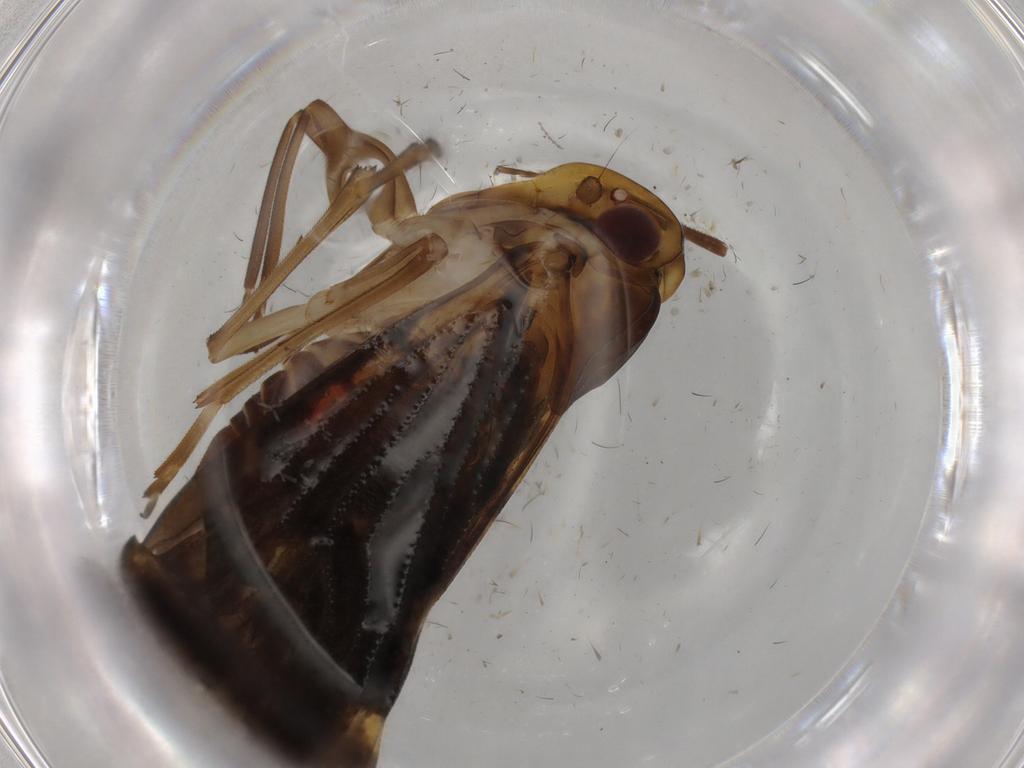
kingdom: Animalia
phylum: Arthropoda
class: Insecta
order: Hemiptera
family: Cixiidae
